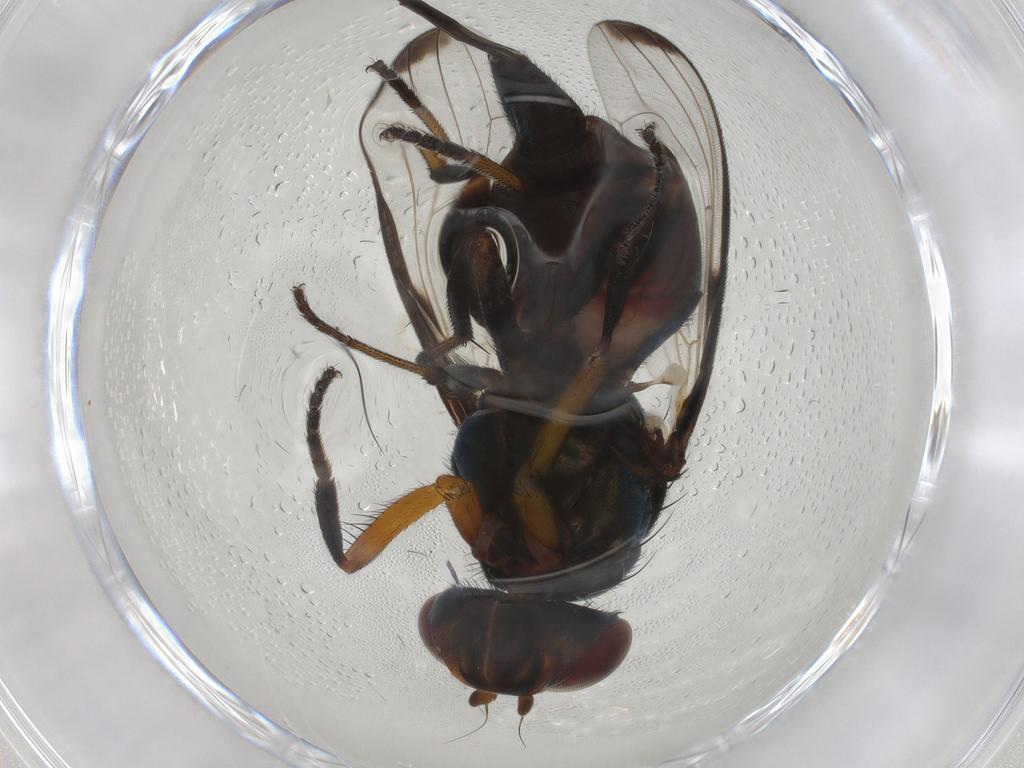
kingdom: Animalia
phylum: Arthropoda
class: Insecta
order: Diptera
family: Ulidiidae
